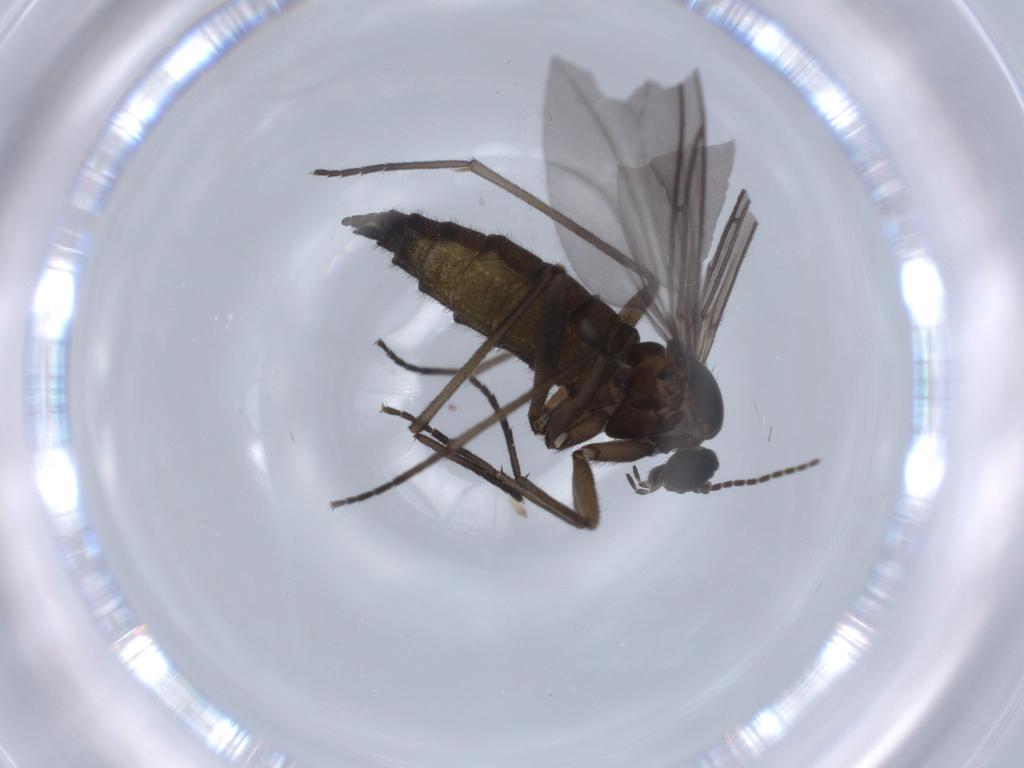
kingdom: Animalia
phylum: Arthropoda
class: Insecta
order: Diptera
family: Sciaridae
